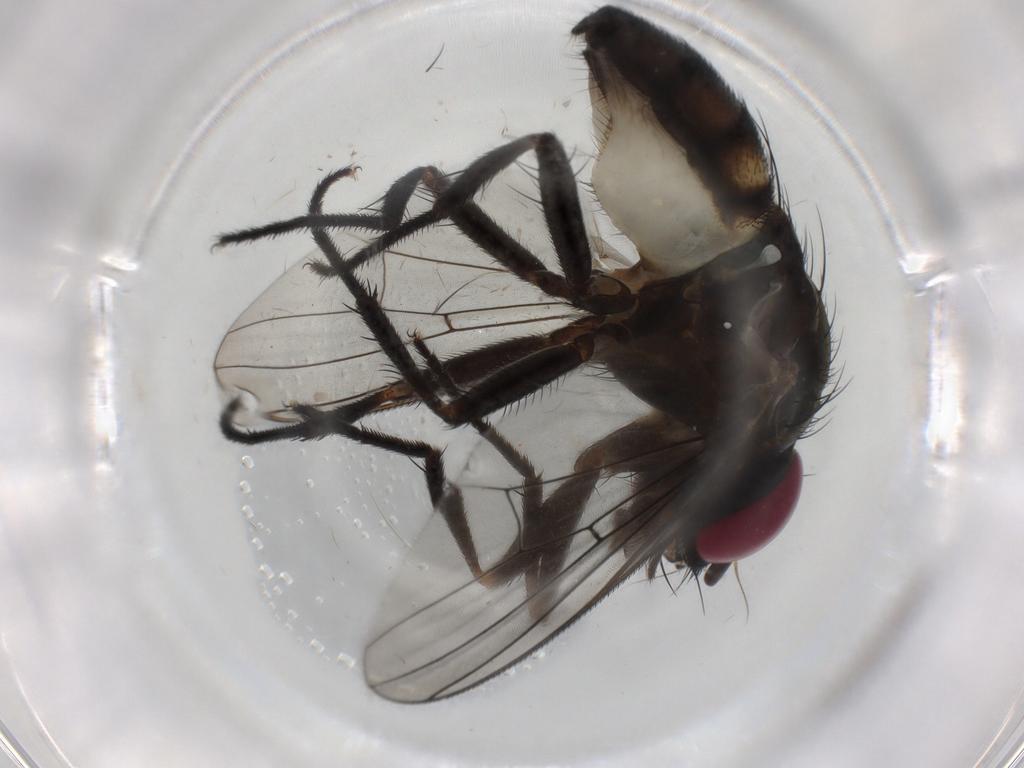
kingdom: Animalia
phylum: Arthropoda
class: Insecta
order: Diptera
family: Fannia
